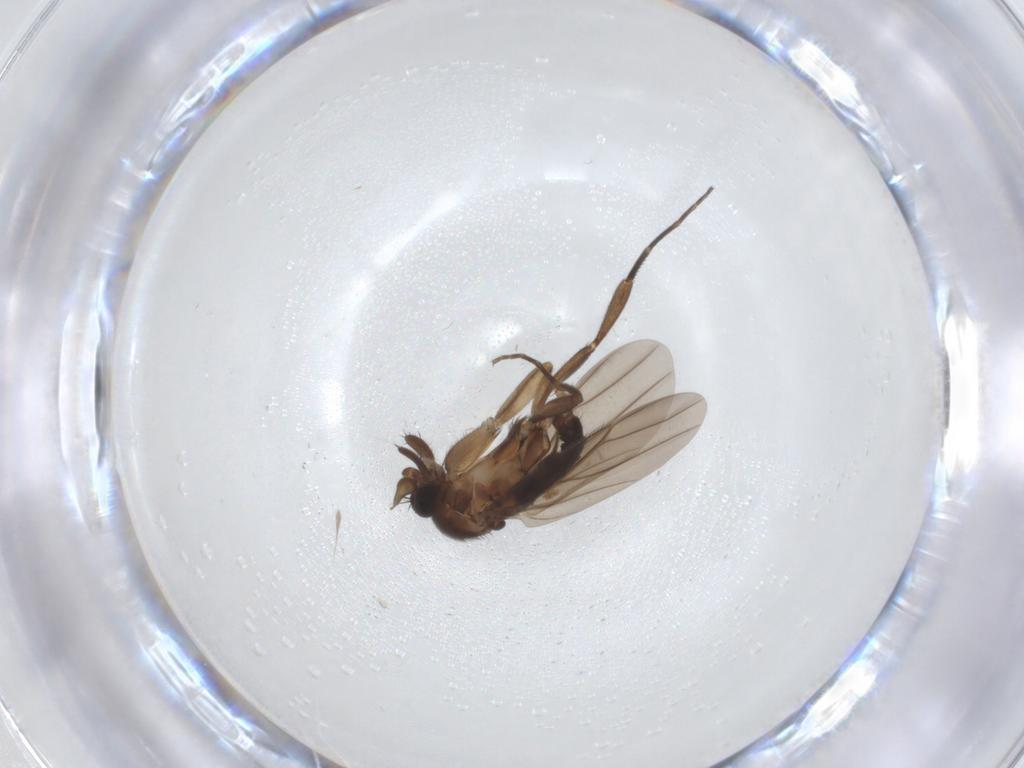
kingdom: Animalia
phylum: Arthropoda
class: Insecta
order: Diptera
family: Phoridae
